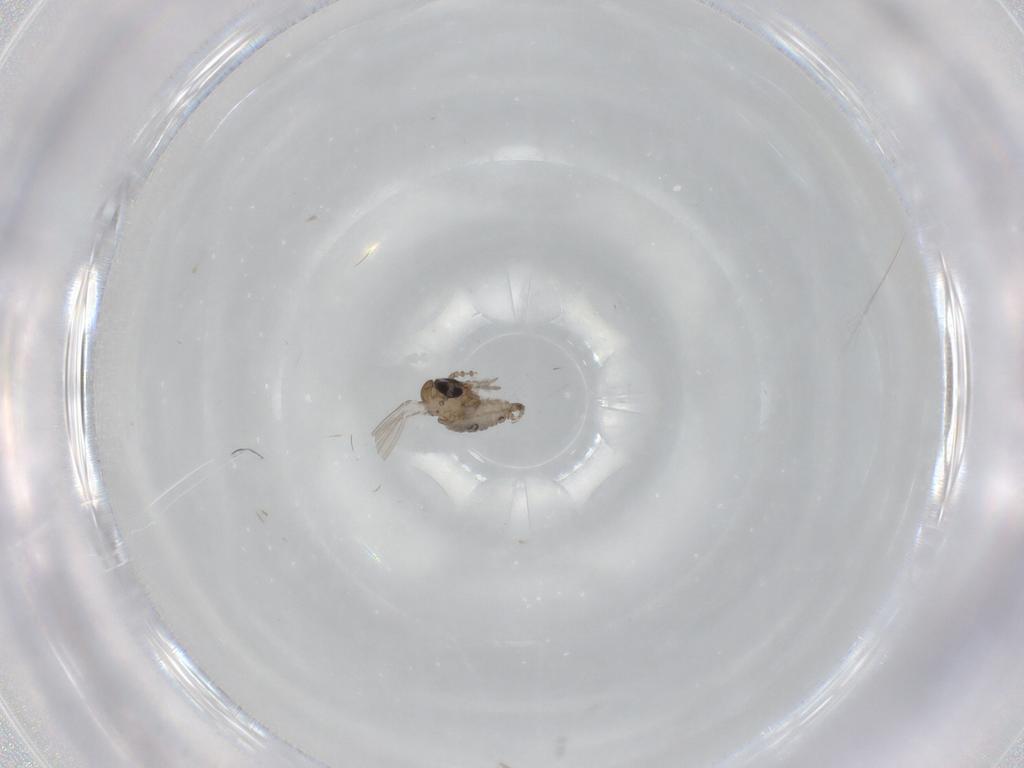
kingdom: Animalia
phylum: Arthropoda
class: Insecta
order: Diptera
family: Psychodidae
